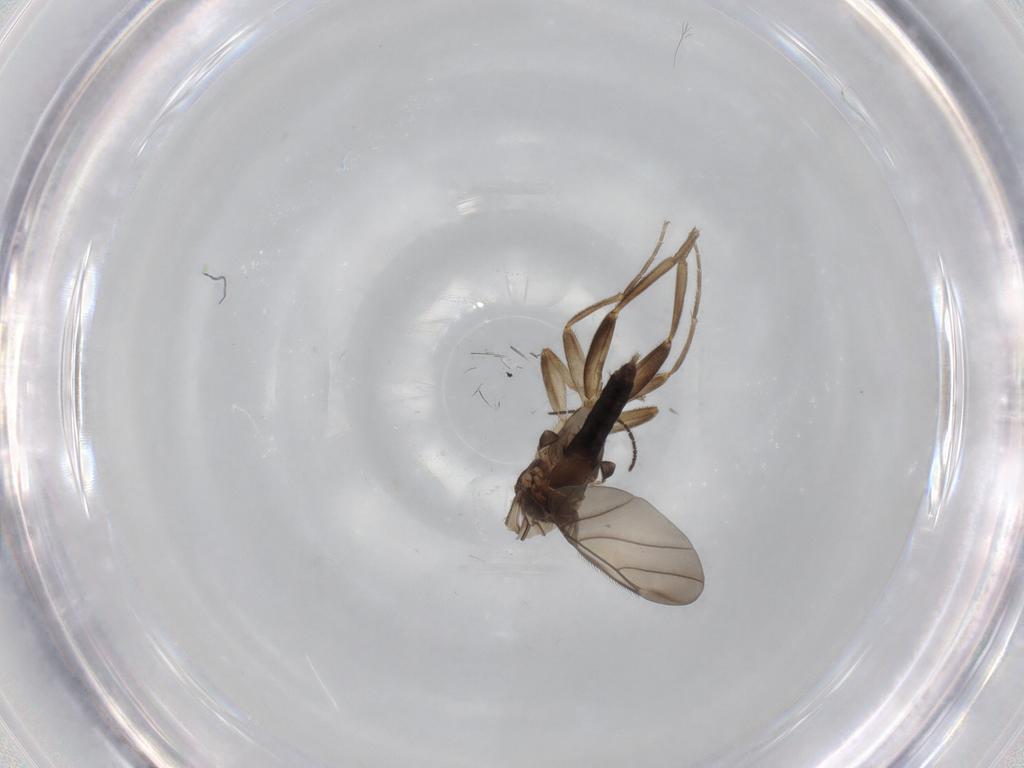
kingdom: Animalia
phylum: Arthropoda
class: Insecta
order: Diptera
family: Phoridae
